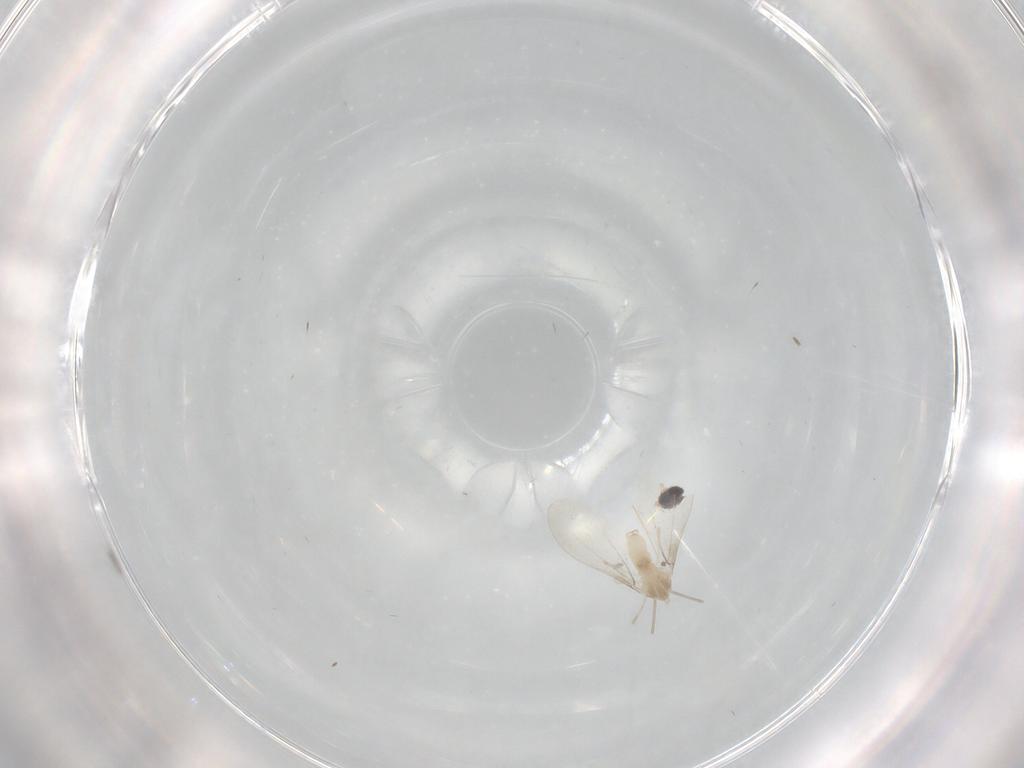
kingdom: Animalia
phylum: Arthropoda
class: Insecta
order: Diptera
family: Cecidomyiidae
